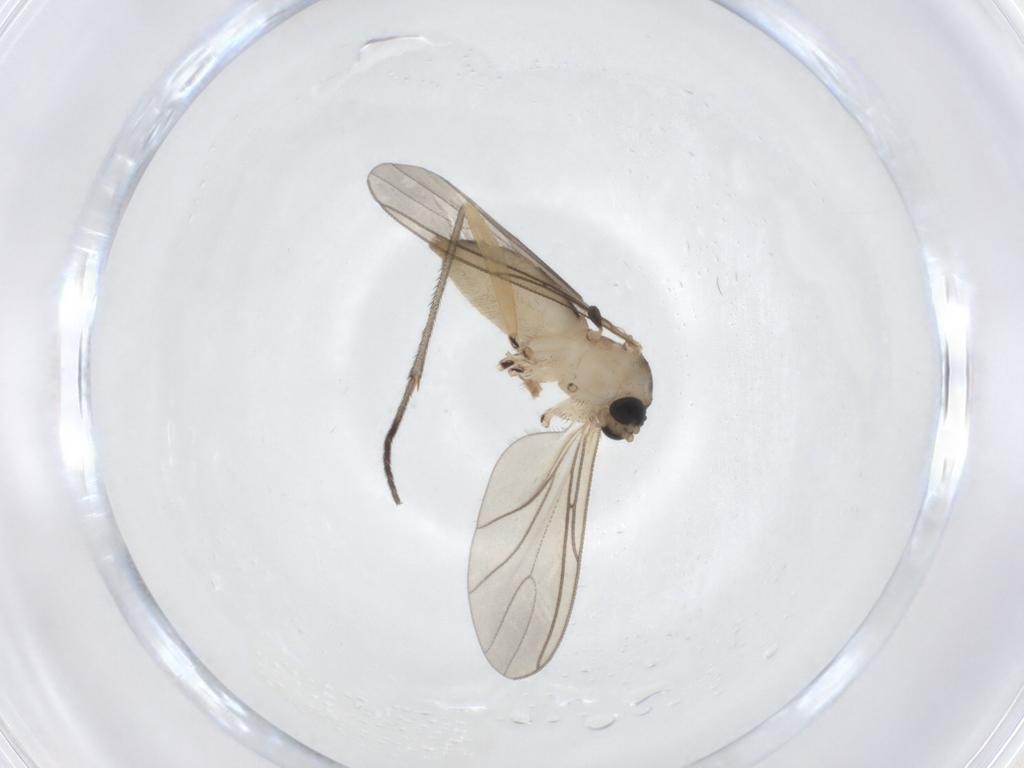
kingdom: Animalia
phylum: Arthropoda
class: Insecta
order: Diptera
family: Sciaridae
